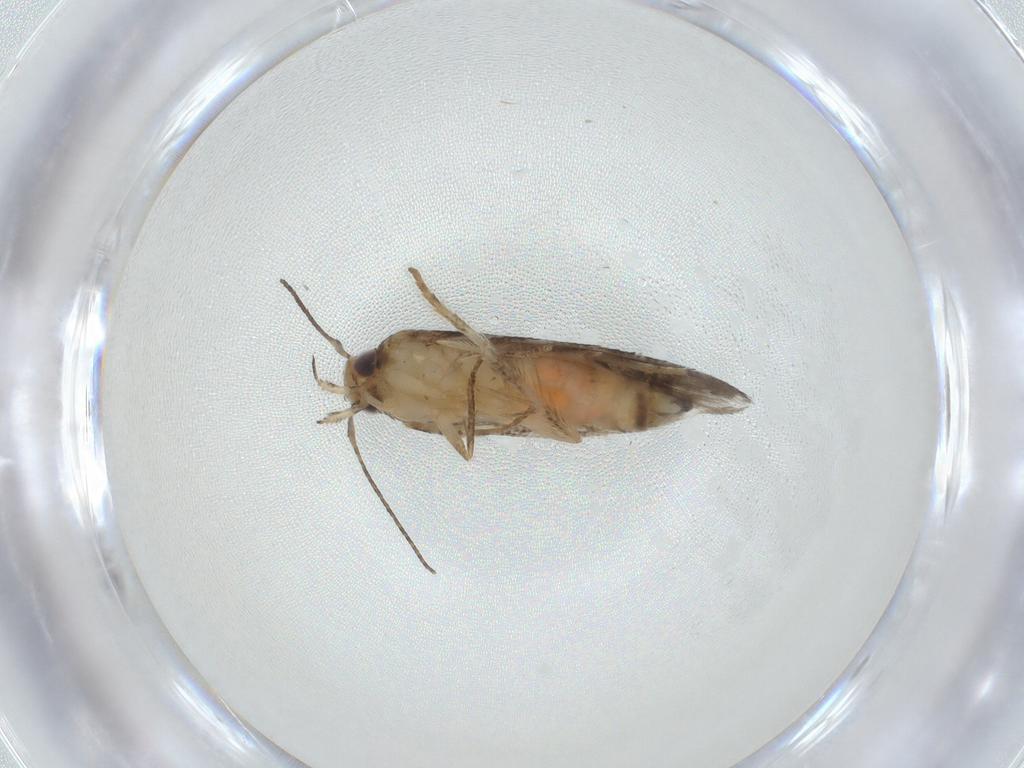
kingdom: Animalia
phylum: Arthropoda
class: Insecta
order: Lepidoptera
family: Elachistidae
